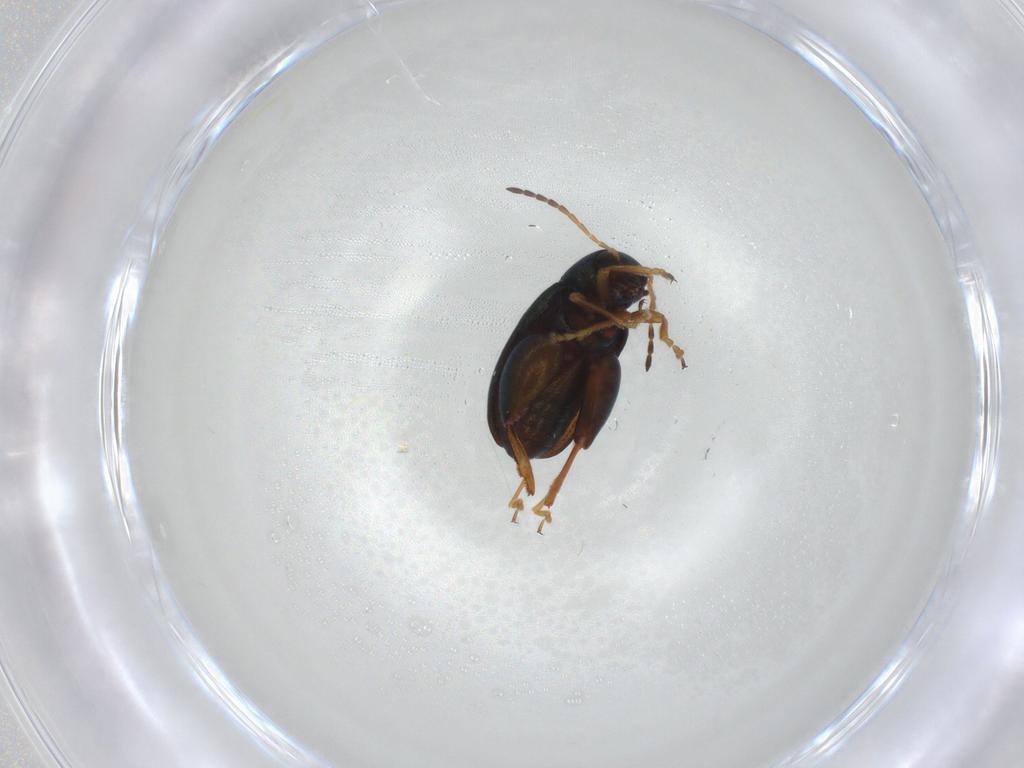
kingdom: Animalia
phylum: Arthropoda
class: Insecta
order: Coleoptera
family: Chrysomelidae
